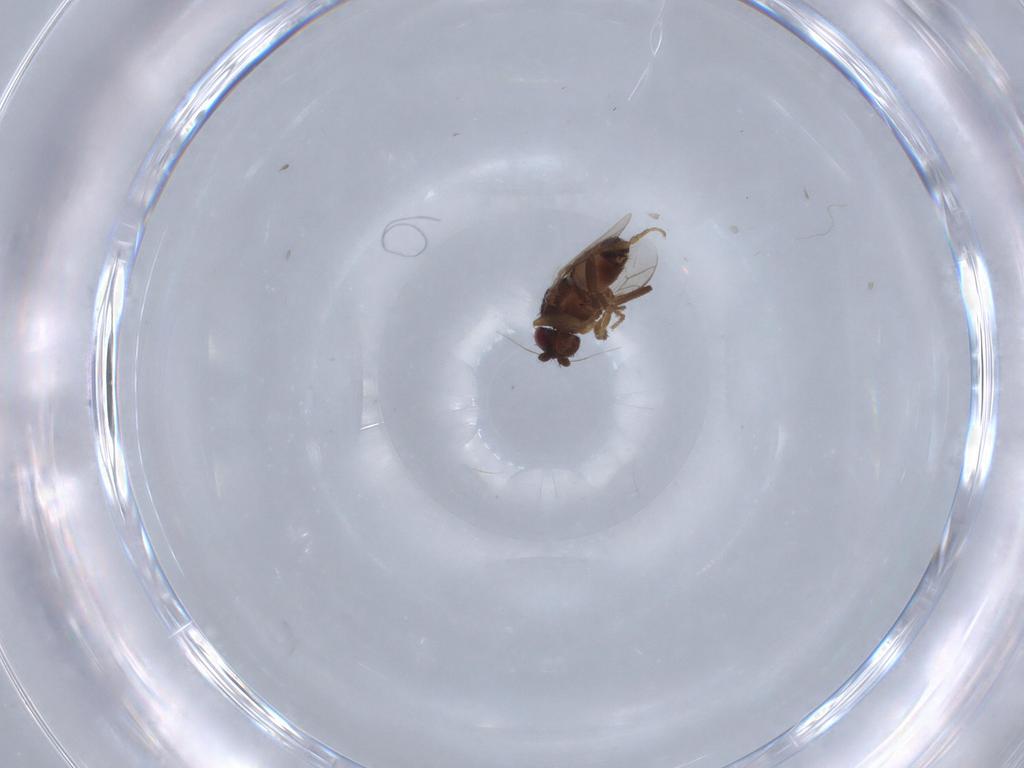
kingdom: Animalia
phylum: Arthropoda
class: Insecta
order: Diptera
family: Sphaeroceridae
